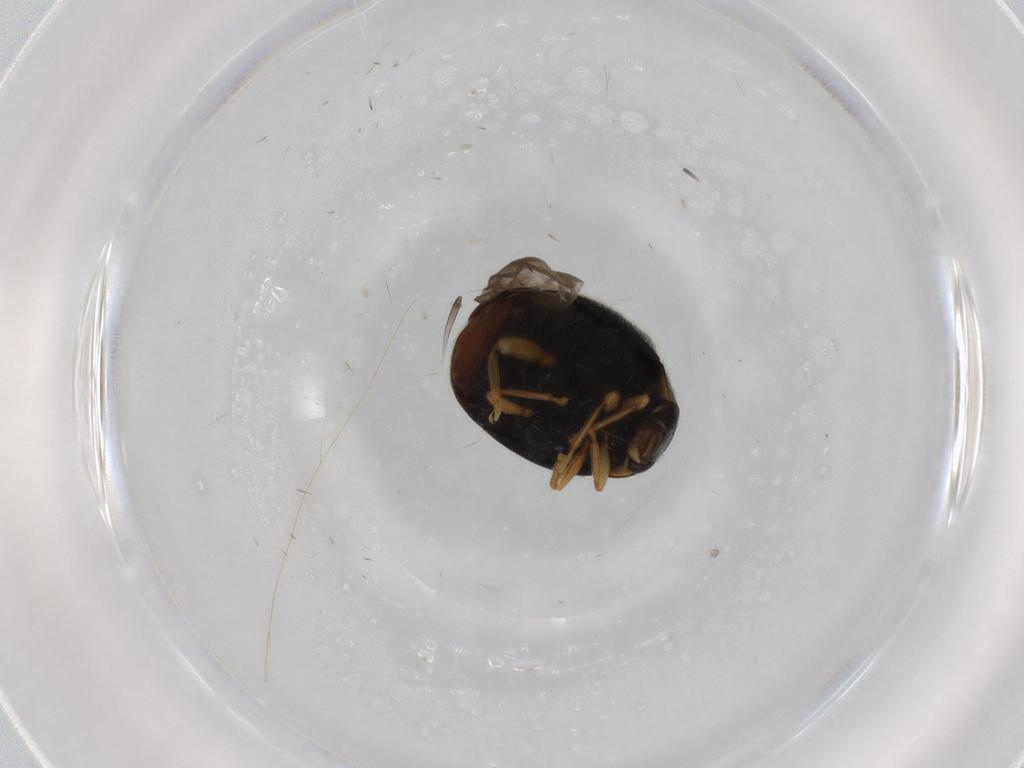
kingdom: Animalia
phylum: Arthropoda
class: Insecta
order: Coleoptera
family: Coccinellidae
